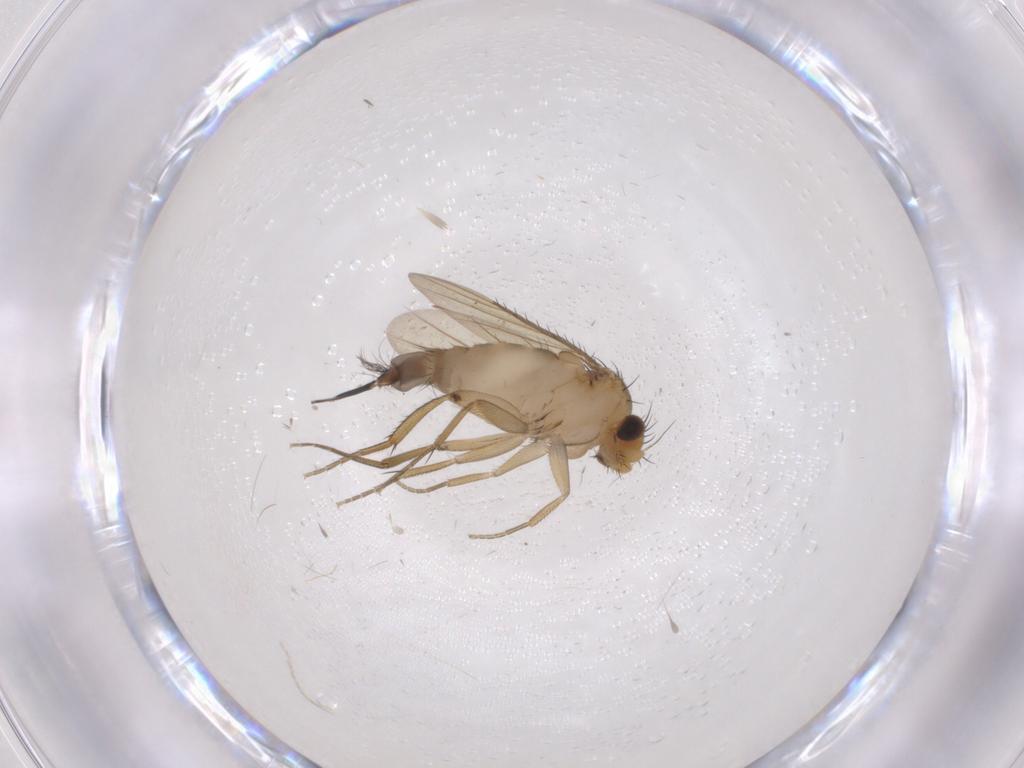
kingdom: Animalia
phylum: Arthropoda
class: Insecta
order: Diptera
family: Phoridae
